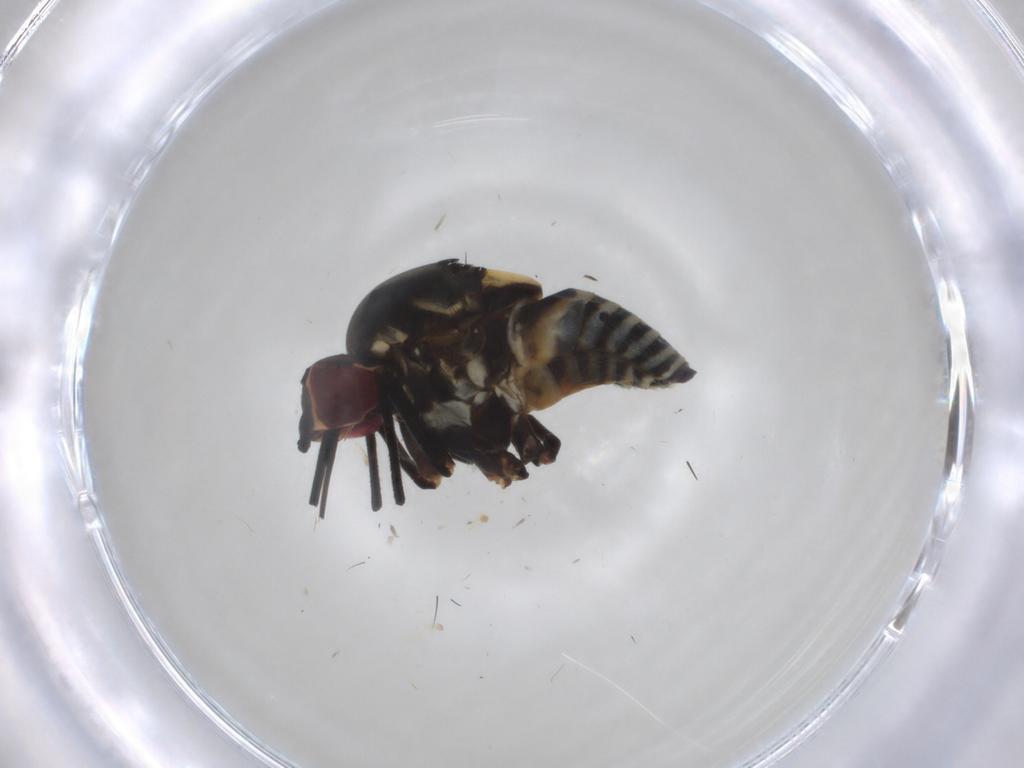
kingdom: Animalia
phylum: Arthropoda
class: Insecta
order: Diptera
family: Bombyliidae
